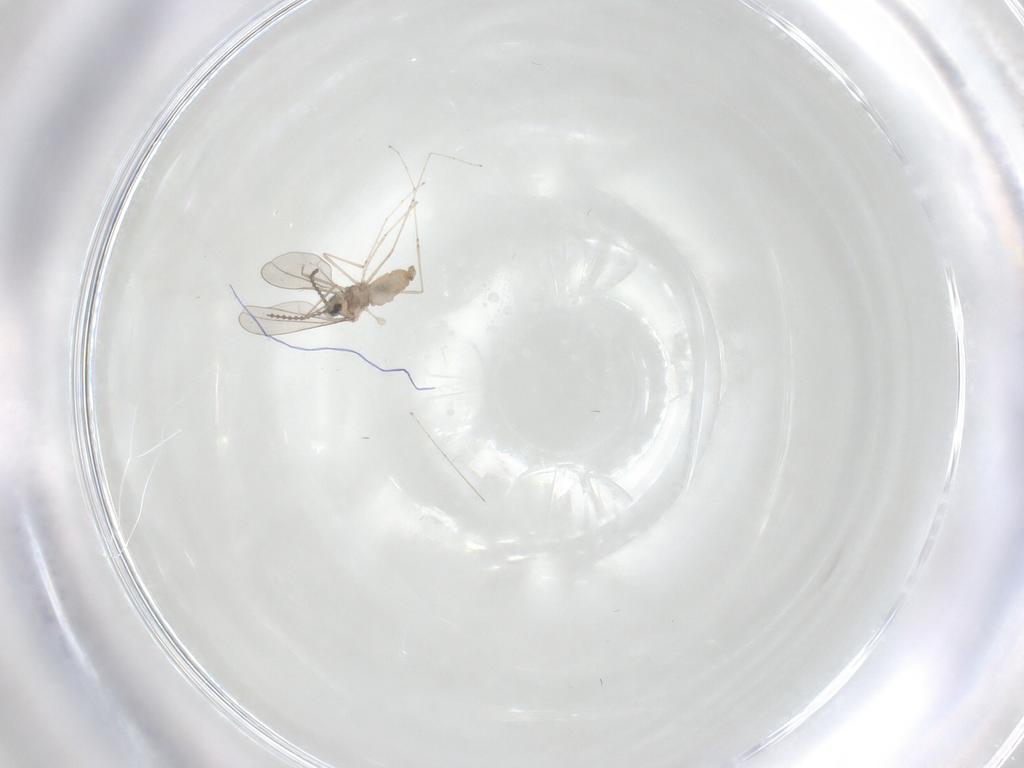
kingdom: Animalia
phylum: Arthropoda
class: Insecta
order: Diptera
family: Cecidomyiidae
